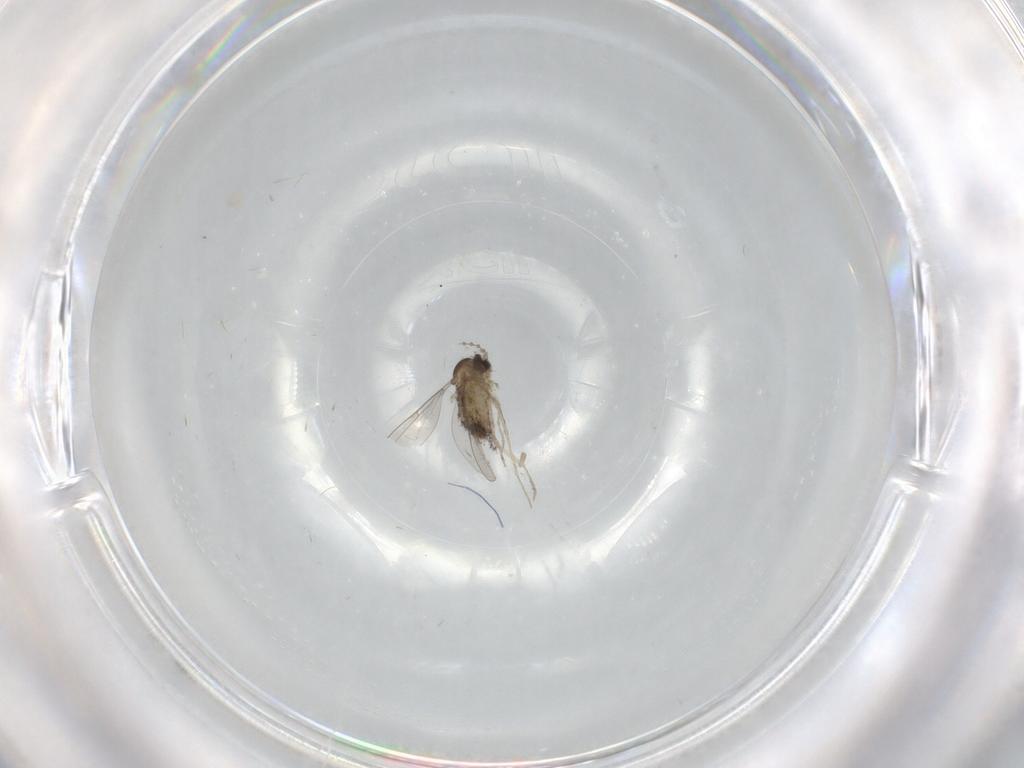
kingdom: Animalia
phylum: Arthropoda
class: Insecta
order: Diptera
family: Cecidomyiidae
